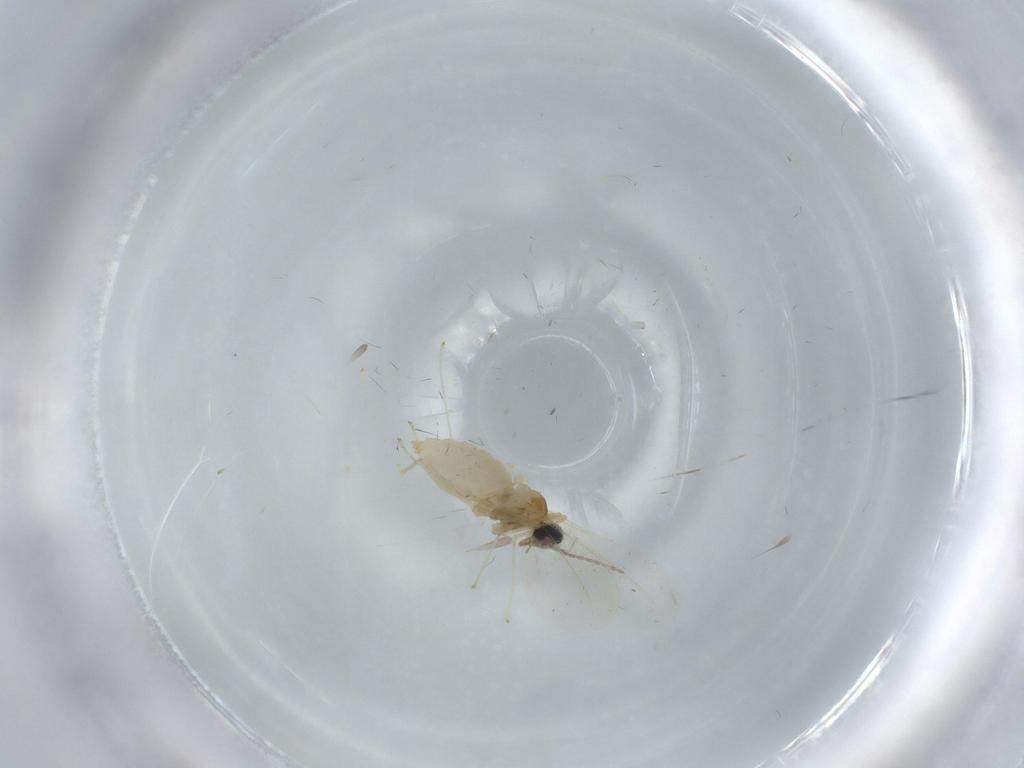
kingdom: Animalia
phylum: Arthropoda
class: Insecta
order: Diptera
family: Cecidomyiidae
